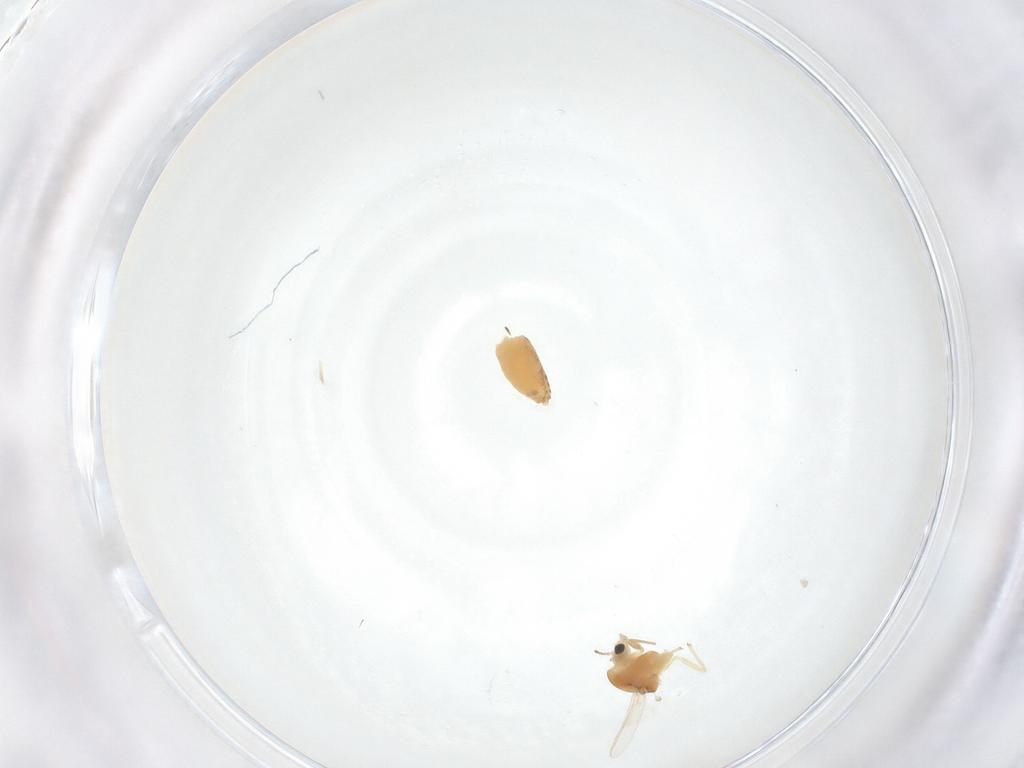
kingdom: Animalia
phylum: Arthropoda
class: Insecta
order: Diptera
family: Chironomidae
